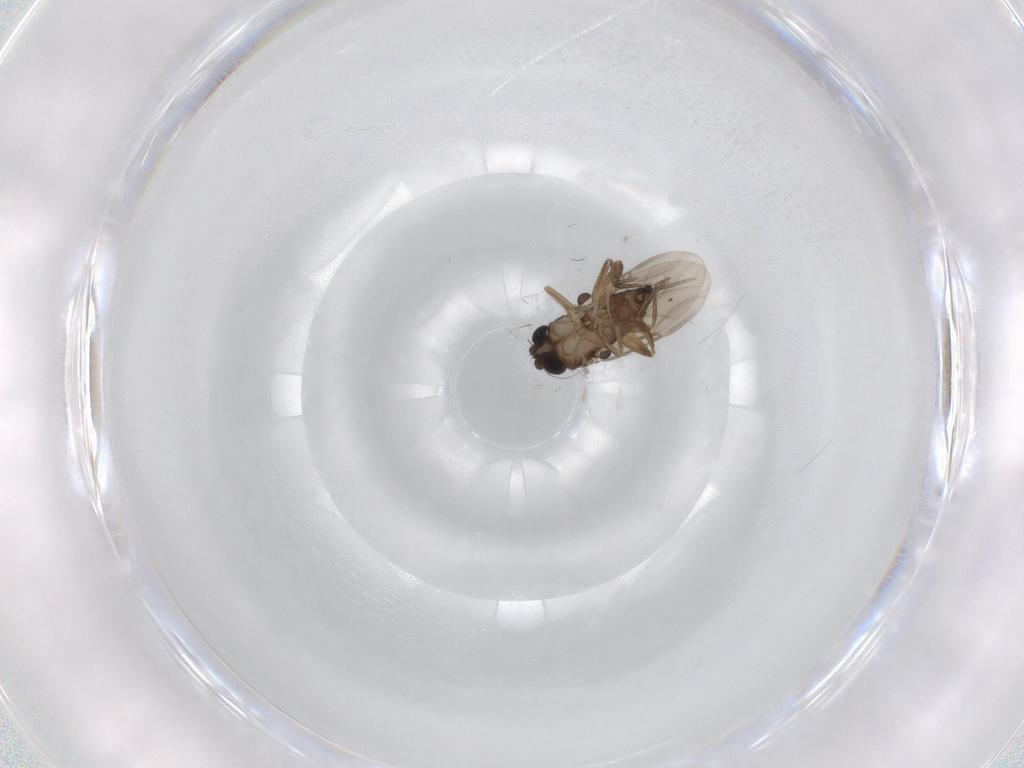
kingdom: Animalia
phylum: Arthropoda
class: Insecta
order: Diptera
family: Phoridae
